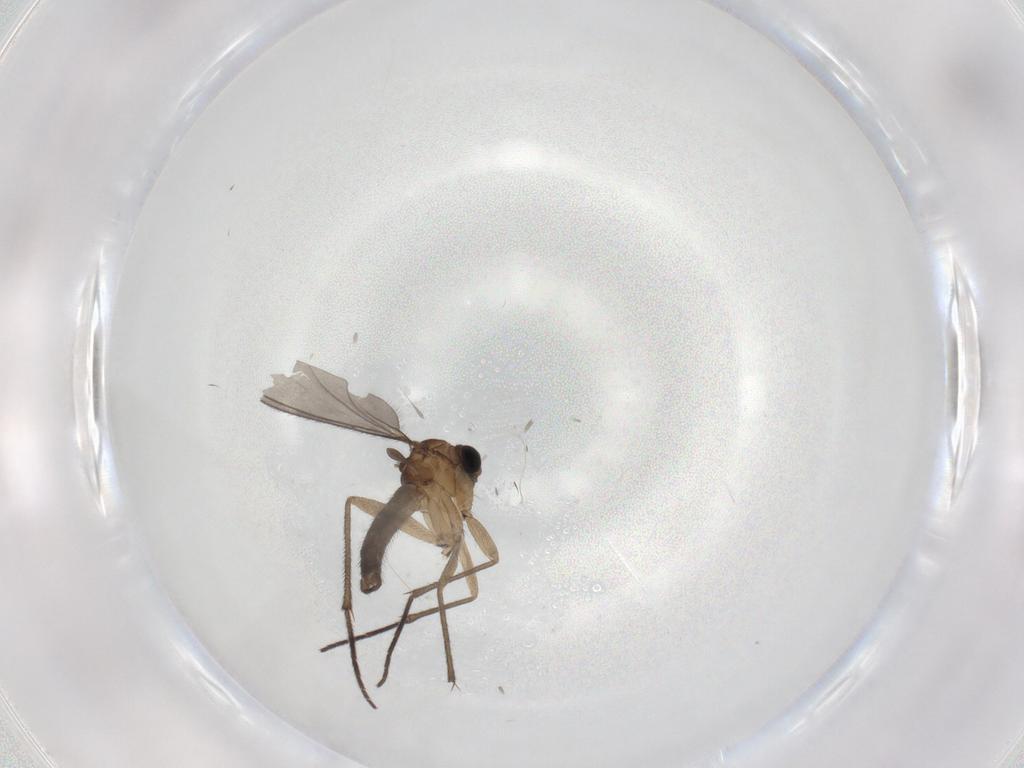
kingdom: Animalia
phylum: Arthropoda
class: Insecta
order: Diptera
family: Sciaridae
